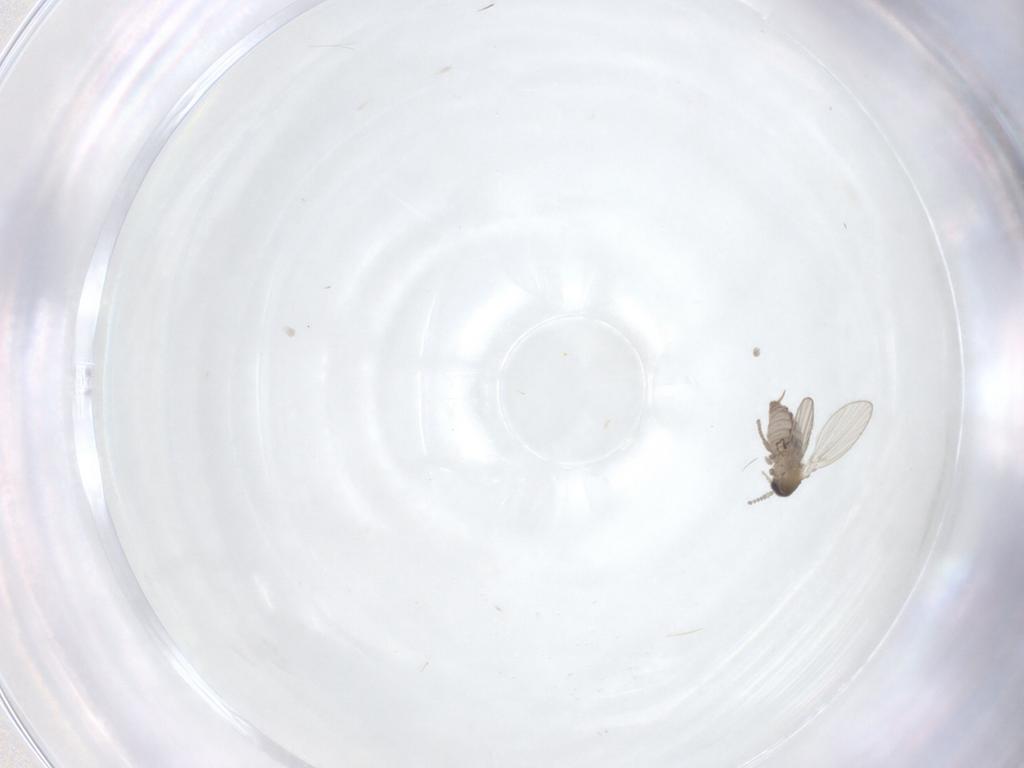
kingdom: Animalia
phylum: Arthropoda
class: Insecta
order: Diptera
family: Psychodidae
